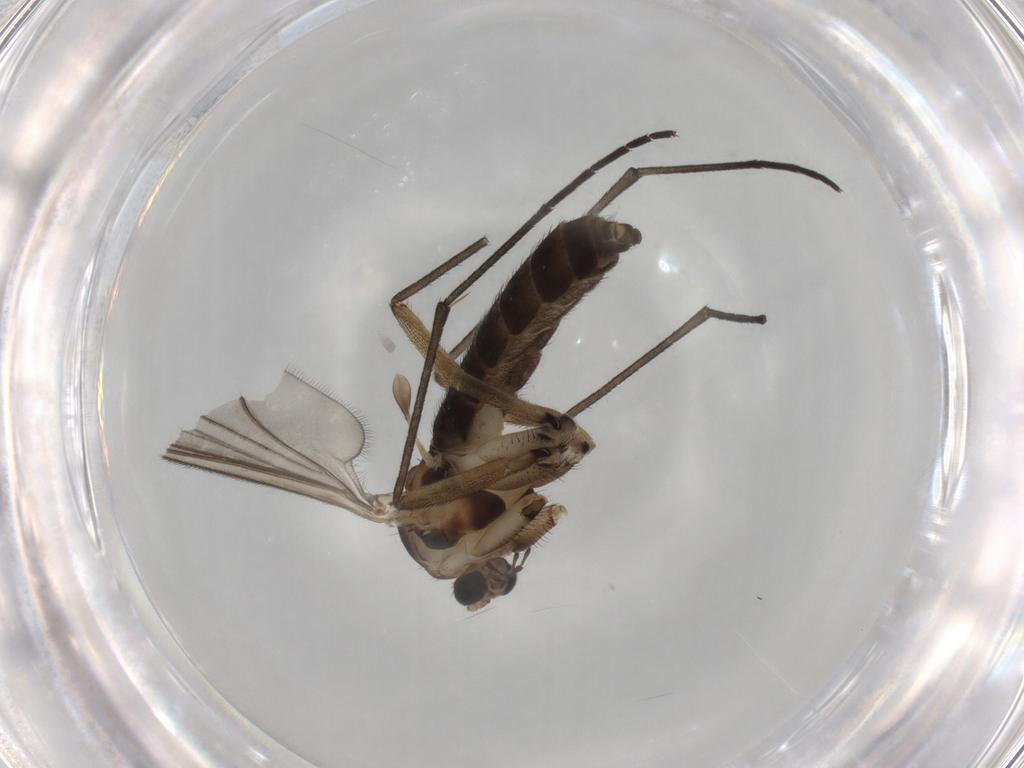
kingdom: Animalia
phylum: Arthropoda
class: Insecta
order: Diptera
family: Sciaridae
